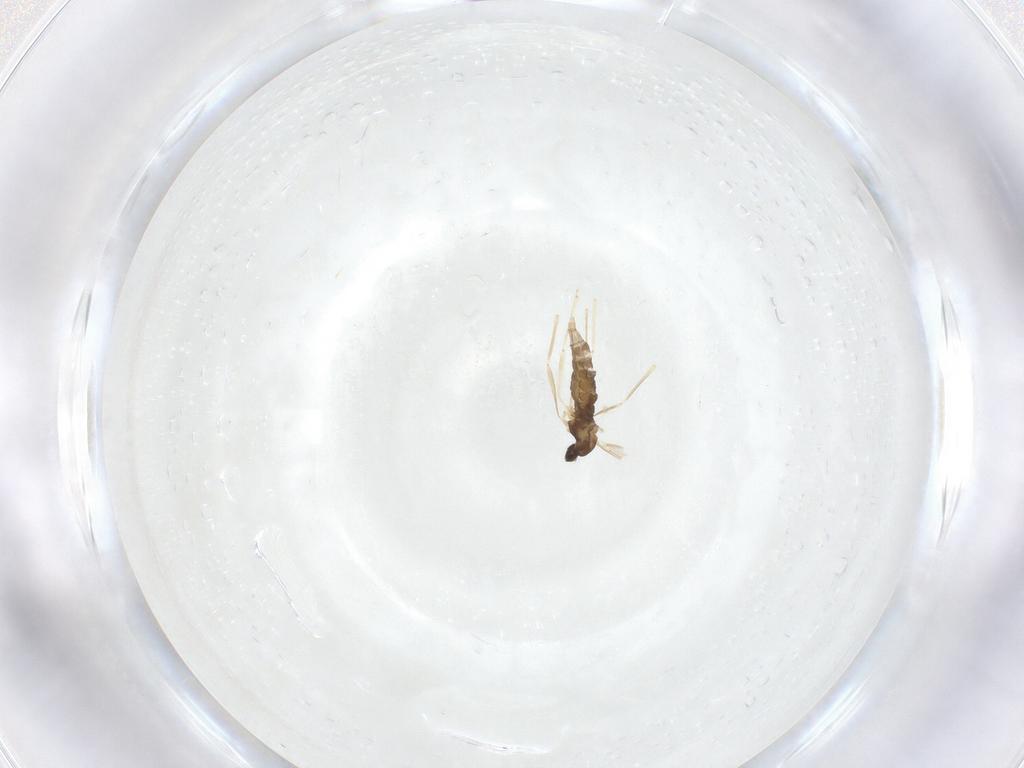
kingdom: Animalia
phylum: Arthropoda
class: Insecta
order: Diptera
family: Cecidomyiidae
